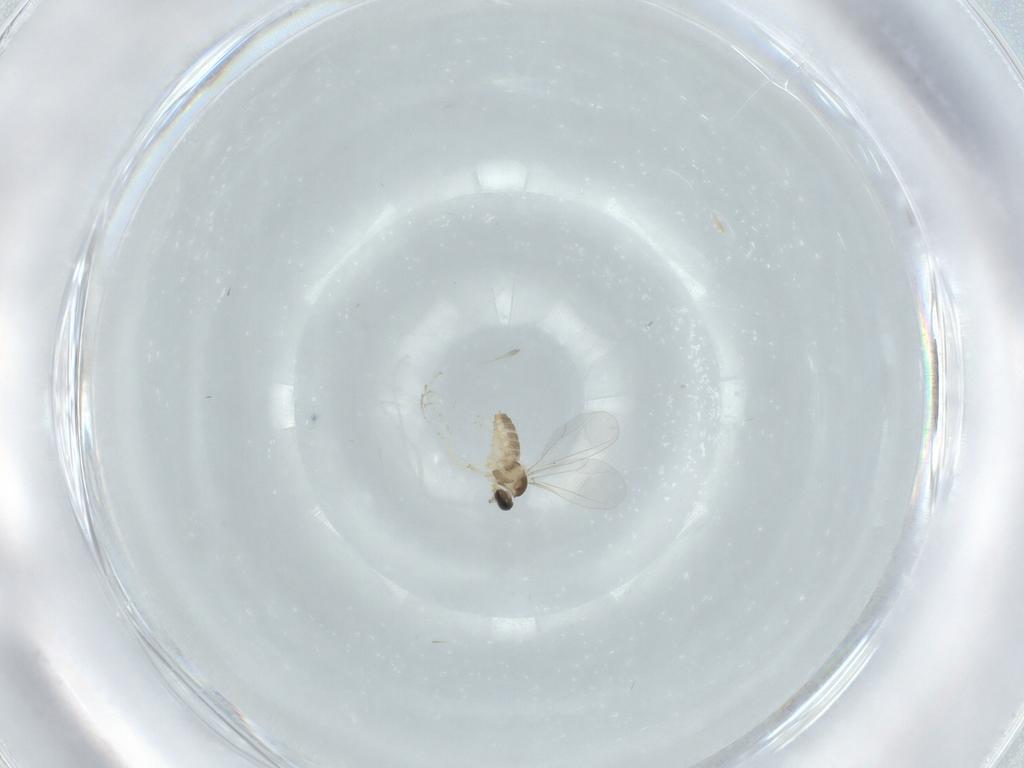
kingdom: Animalia
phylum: Arthropoda
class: Insecta
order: Diptera
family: Cecidomyiidae
